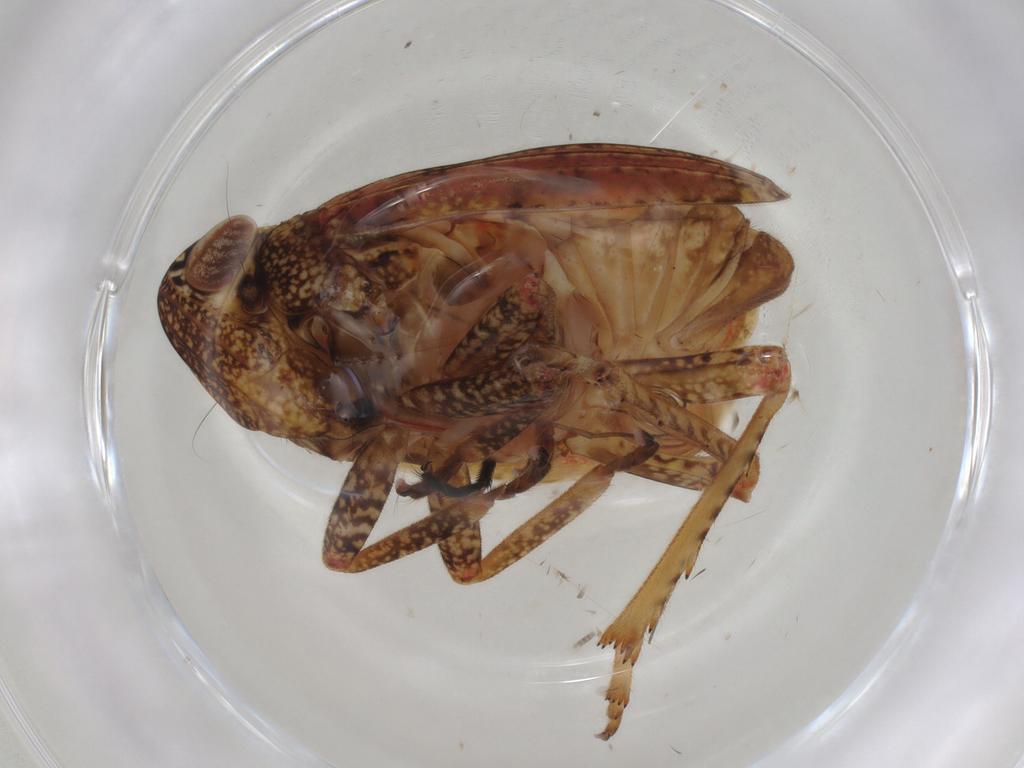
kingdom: Animalia
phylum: Arthropoda
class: Insecta
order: Hemiptera
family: Tropiduchidae
